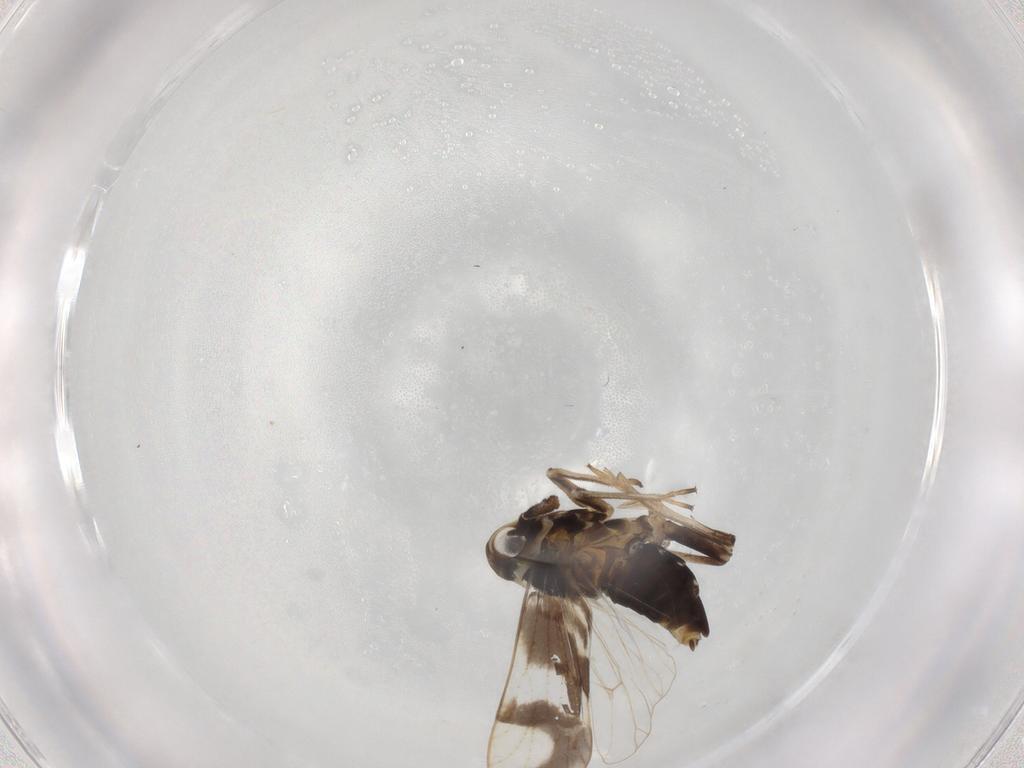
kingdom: Animalia
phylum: Arthropoda
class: Insecta
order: Hemiptera
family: Delphacidae
